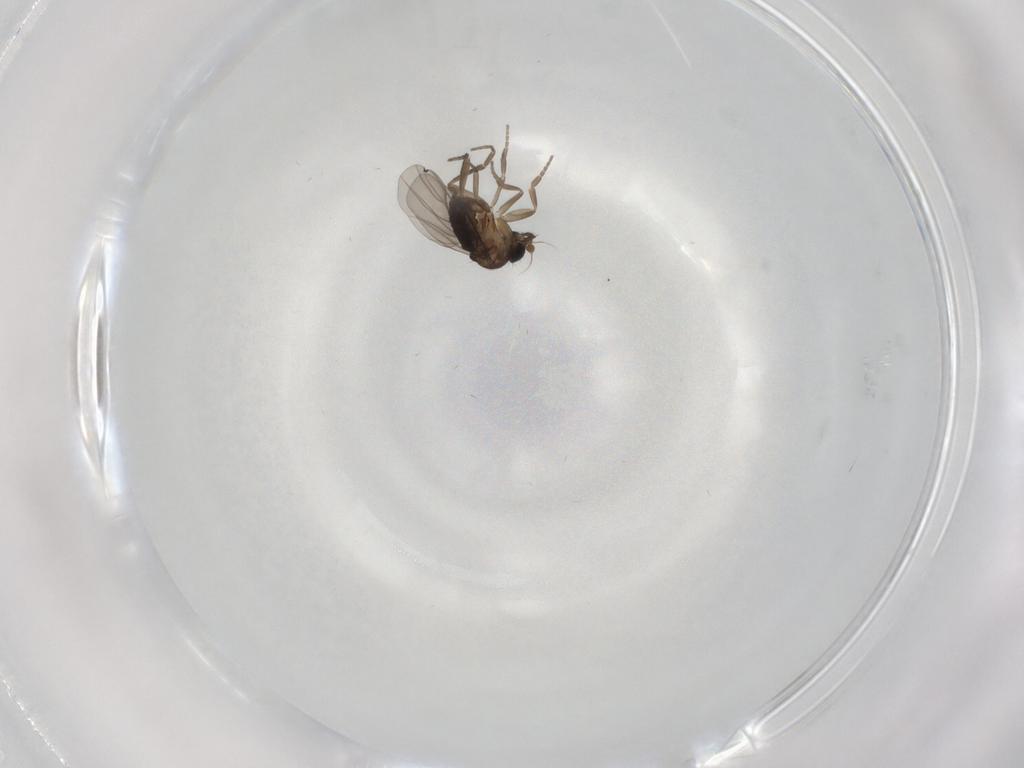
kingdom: Animalia
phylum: Arthropoda
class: Insecta
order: Diptera
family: Phoridae
